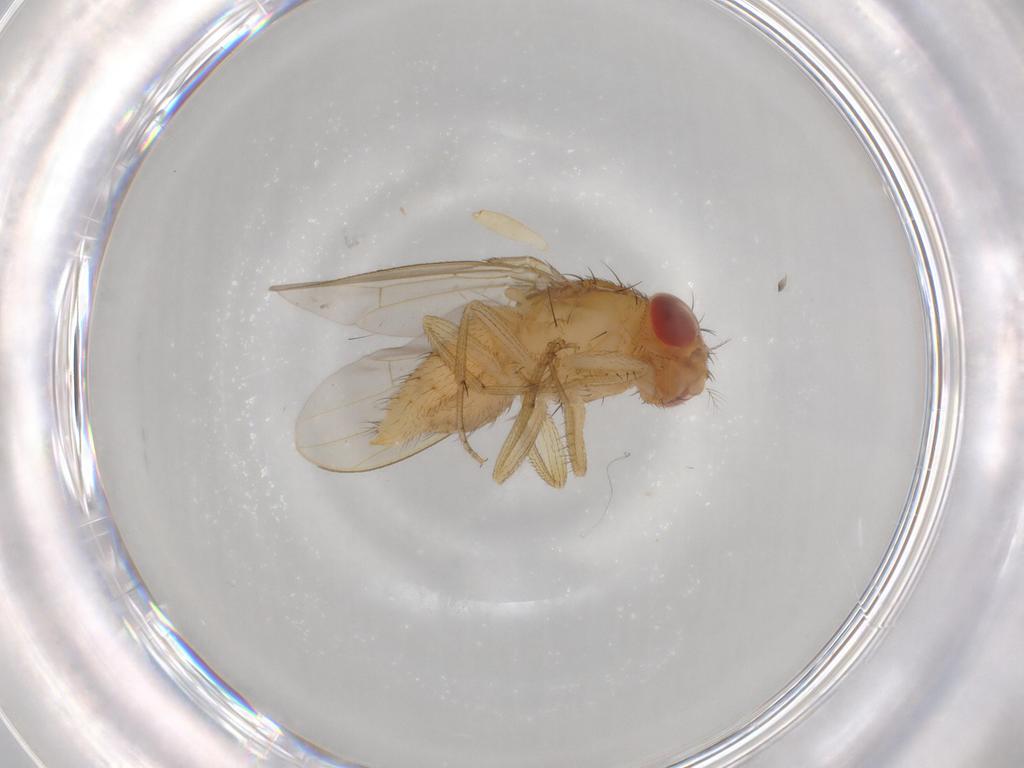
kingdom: Animalia
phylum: Arthropoda
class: Insecta
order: Diptera
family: Drosophilidae
